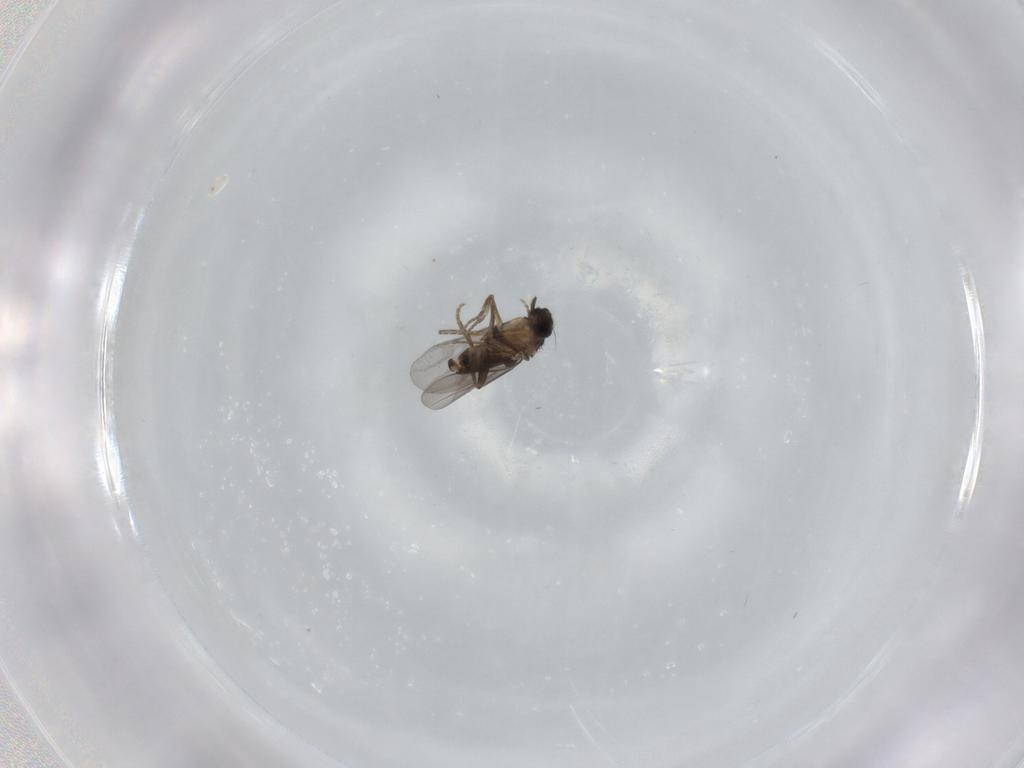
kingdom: Animalia
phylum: Arthropoda
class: Insecta
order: Diptera
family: Chironomidae
